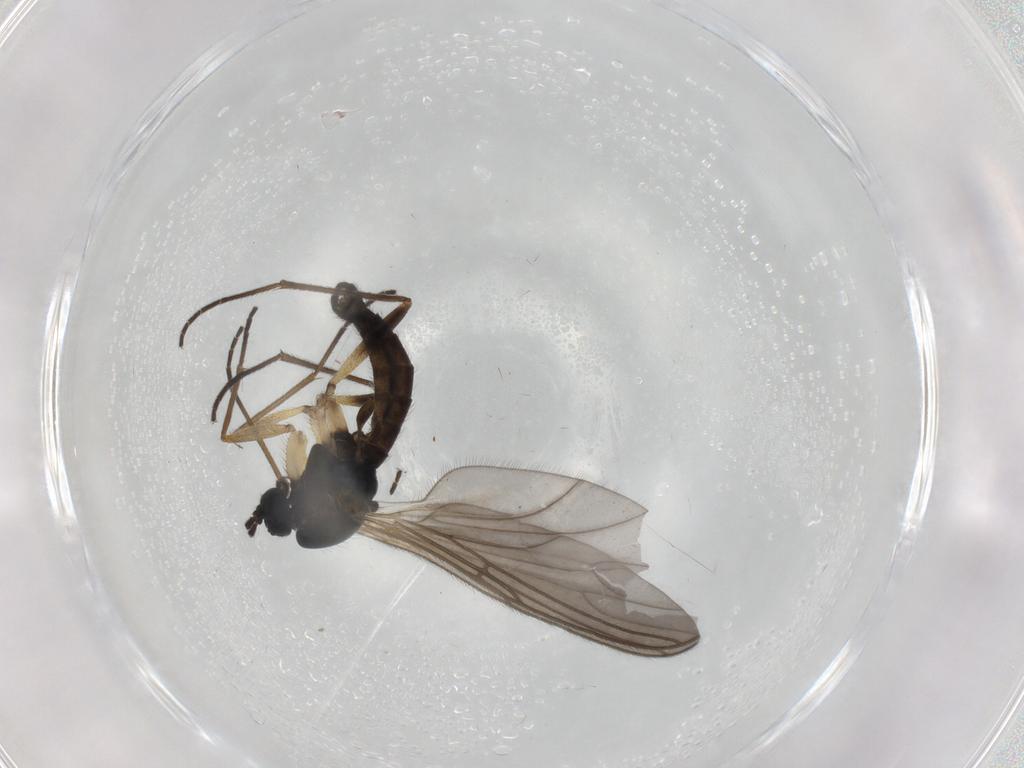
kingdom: Animalia
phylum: Arthropoda
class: Insecta
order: Diptera
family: Sciaridae
